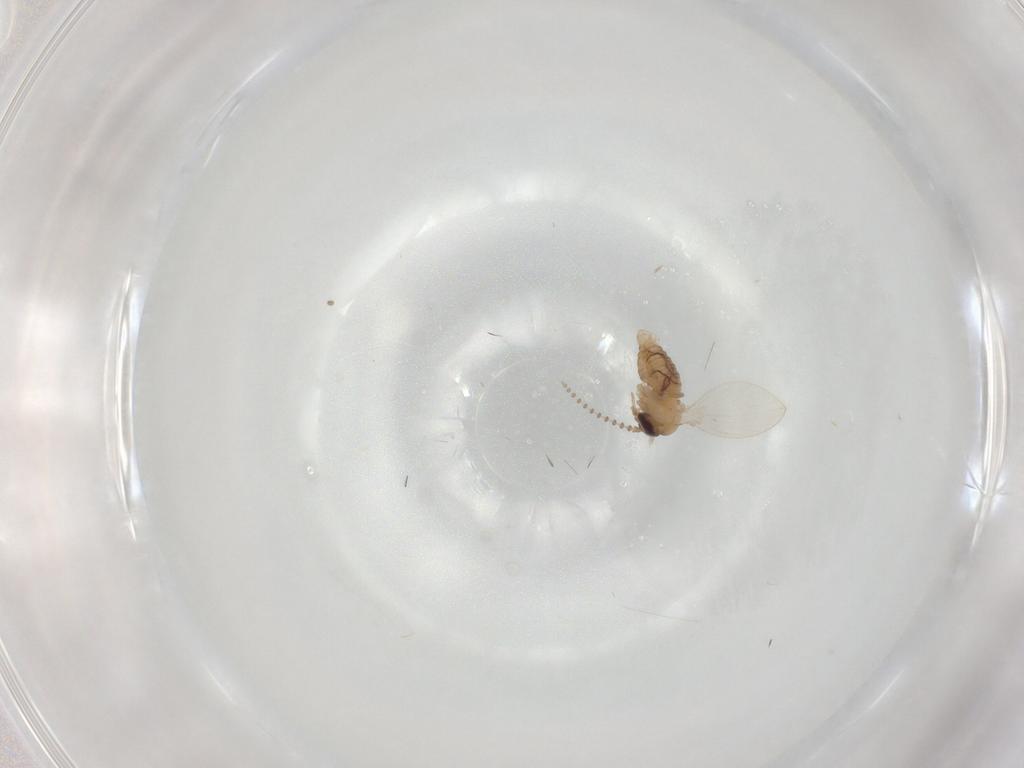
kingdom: Animalia
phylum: Arthropoda
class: Insecta
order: Diptera
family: Psychodidae
